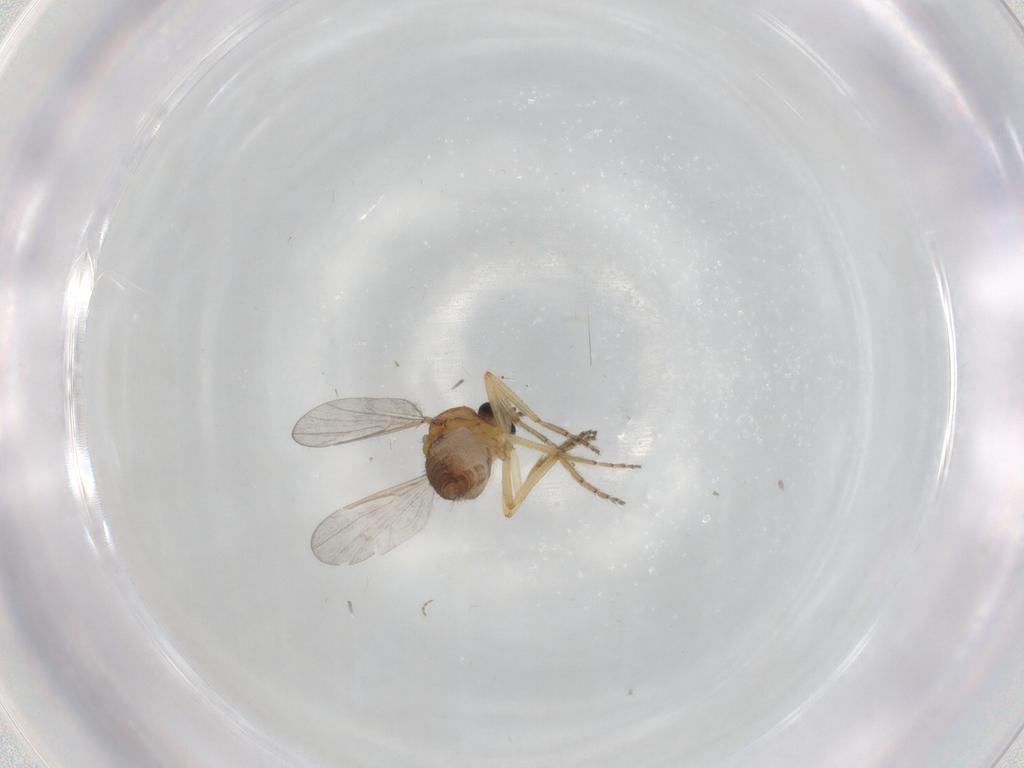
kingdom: Animalia
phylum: Arthropoda
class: Insecta
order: Diptera
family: Ceratopogonidae
